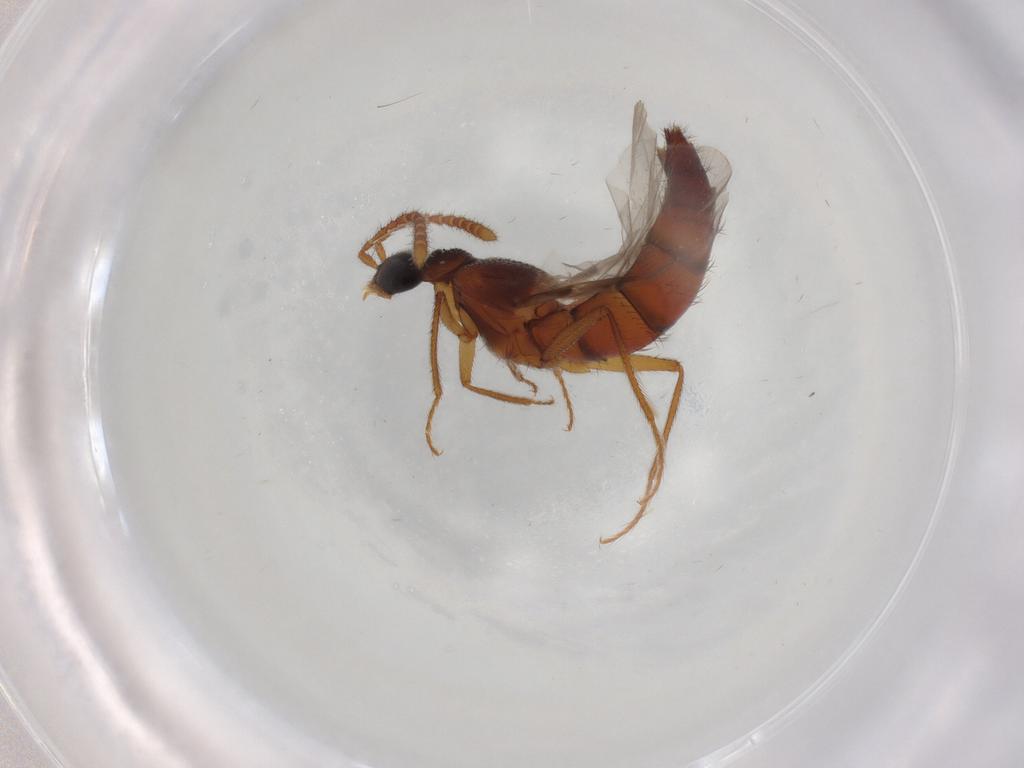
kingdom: Animalia
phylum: Arthropoda
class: Insecta
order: Coleoptera
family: Staphylinidae
